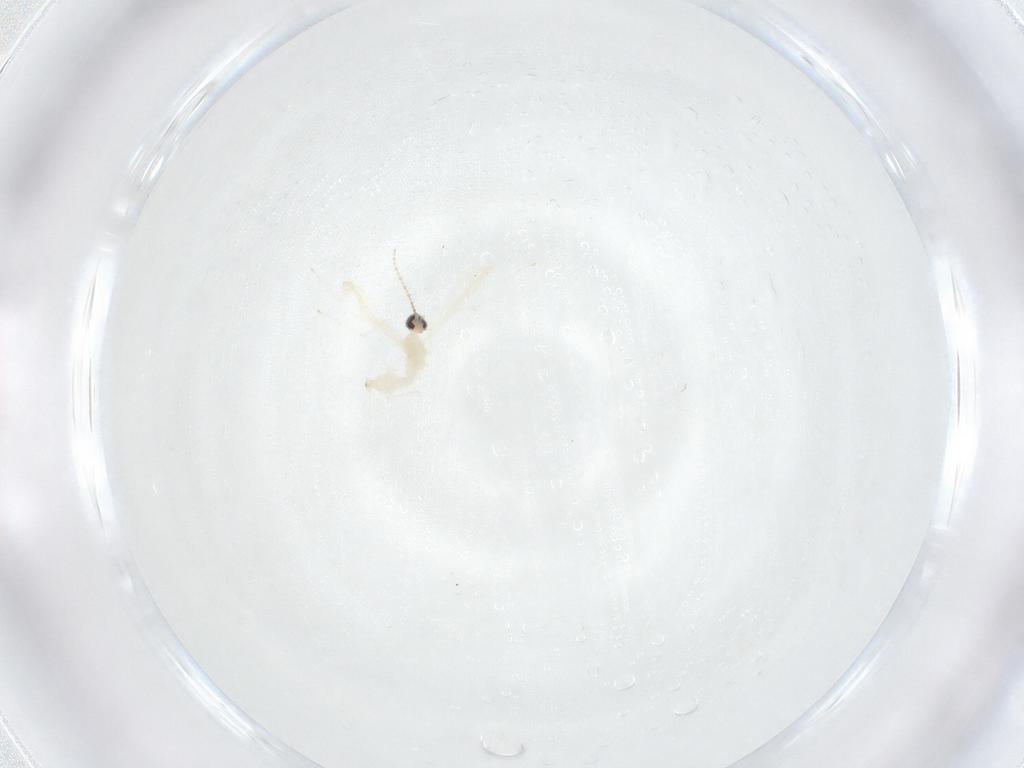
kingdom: Animalia
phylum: Arthropoda
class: Insecta
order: Diptera
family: Cecidomyiidae
